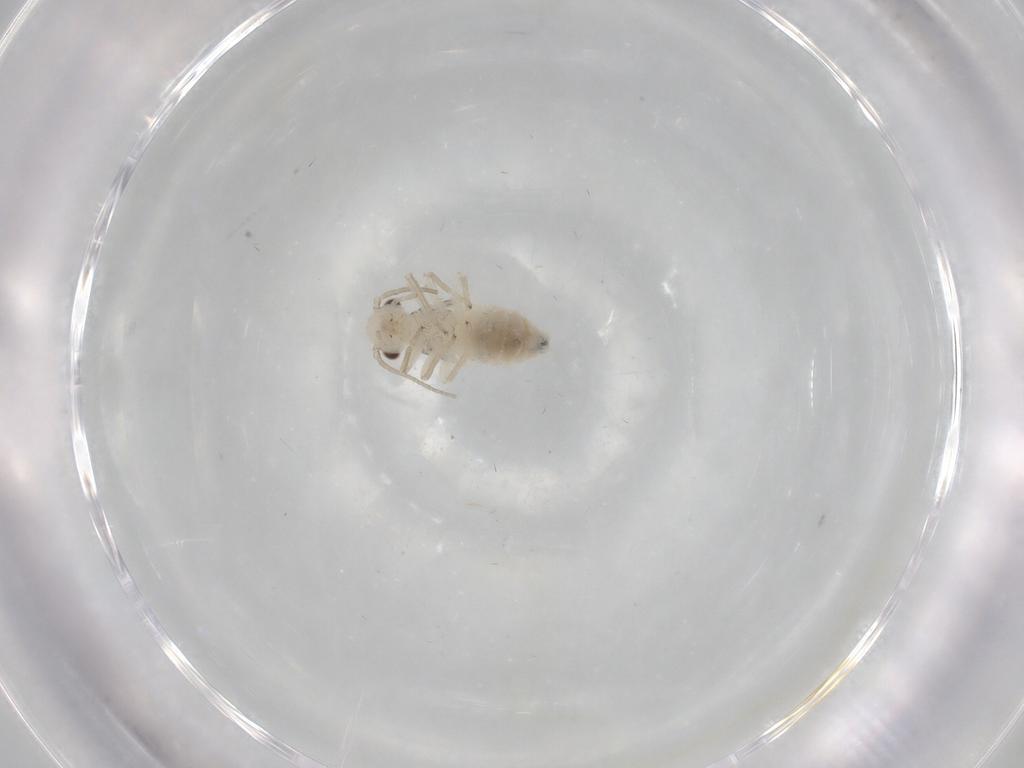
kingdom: Animalia
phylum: Arthropoda
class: Insecta
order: Psocodea
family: Caeciliusidae
